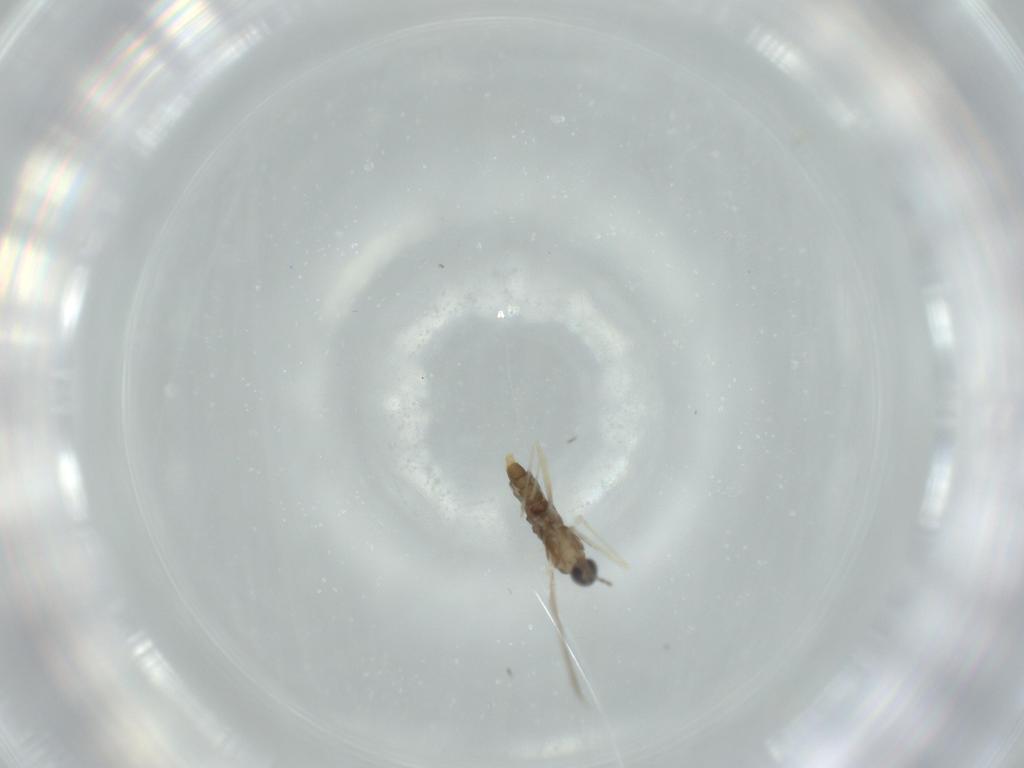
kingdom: Animalia
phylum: Arthropoda
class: Insecta
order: Diptera
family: Cecidomyiidae
